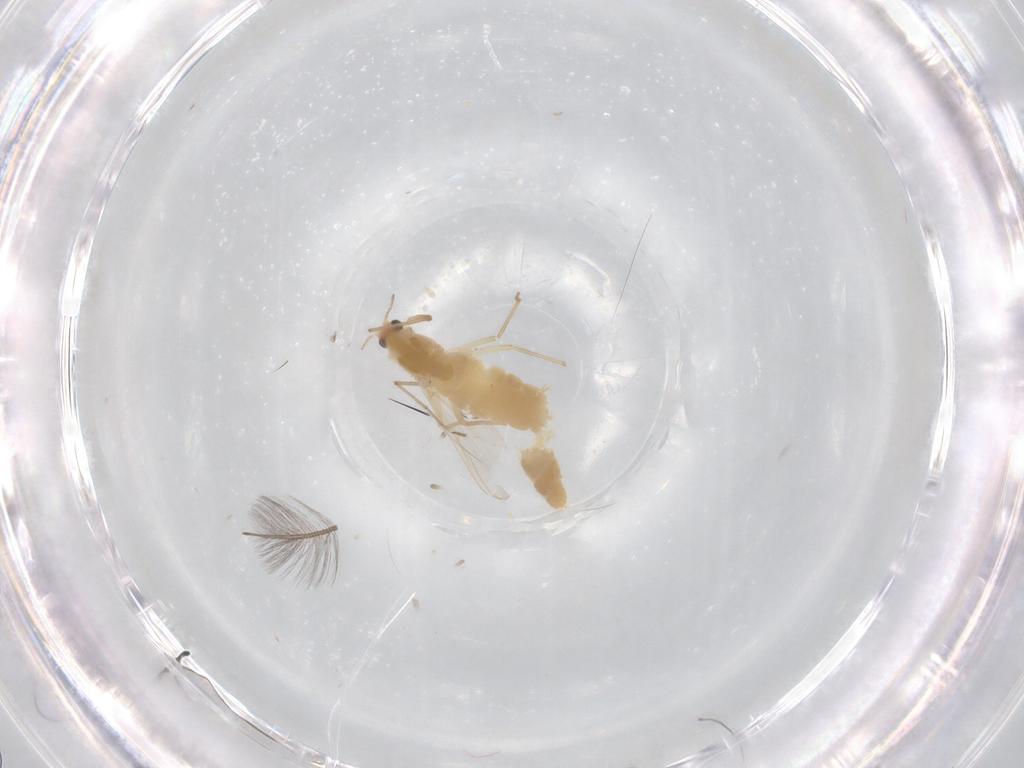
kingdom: Animalia
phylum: Arthropoda
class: Insecta
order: Diptera
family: Chironomidae
